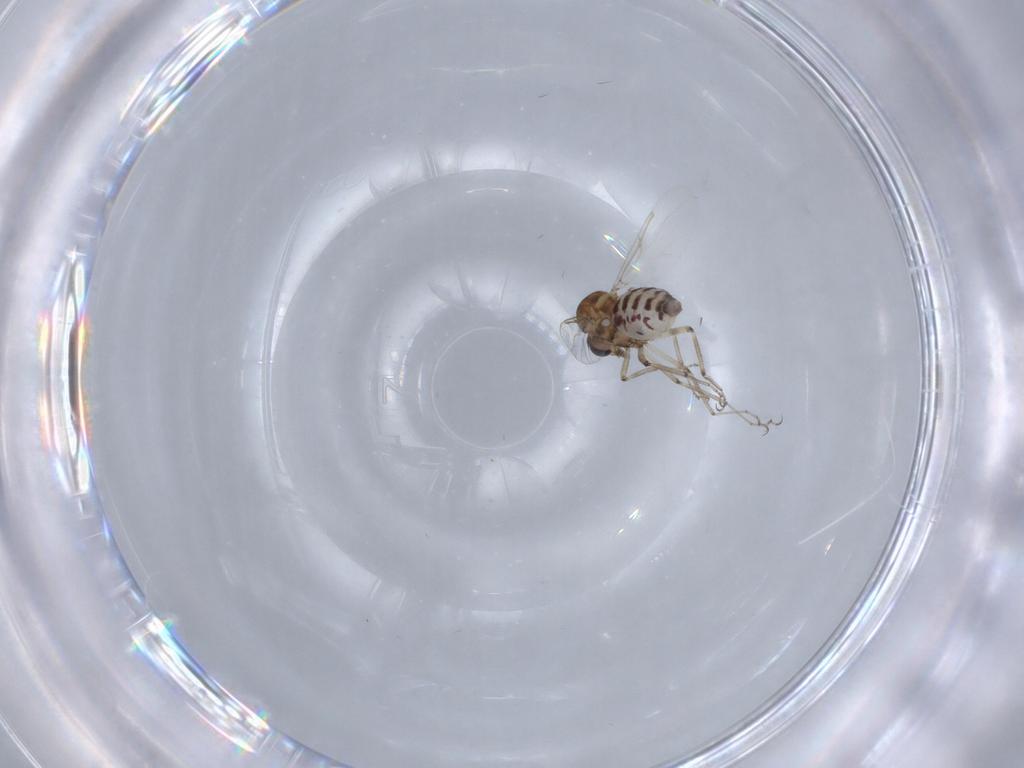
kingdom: Animalia
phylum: Arthropoda
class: Insecta
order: Diptera
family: Ceratopogonidae
